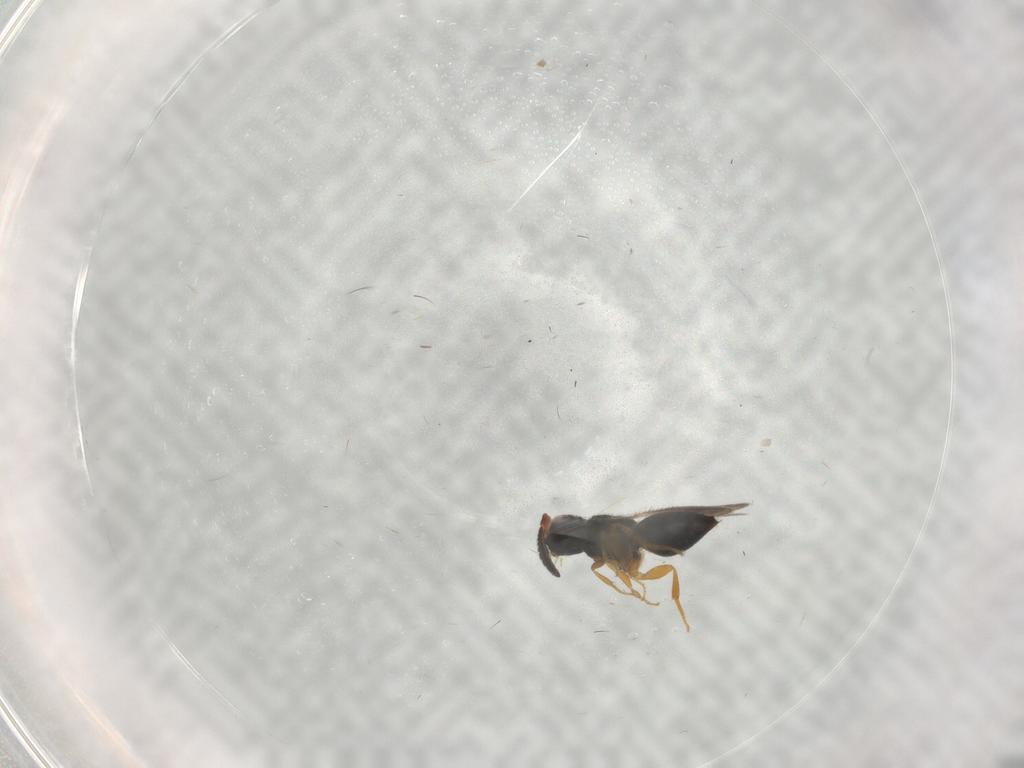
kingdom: Animalia
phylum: Arthropoda
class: Insecta
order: Hymenoptera
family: Ceraphronidae
